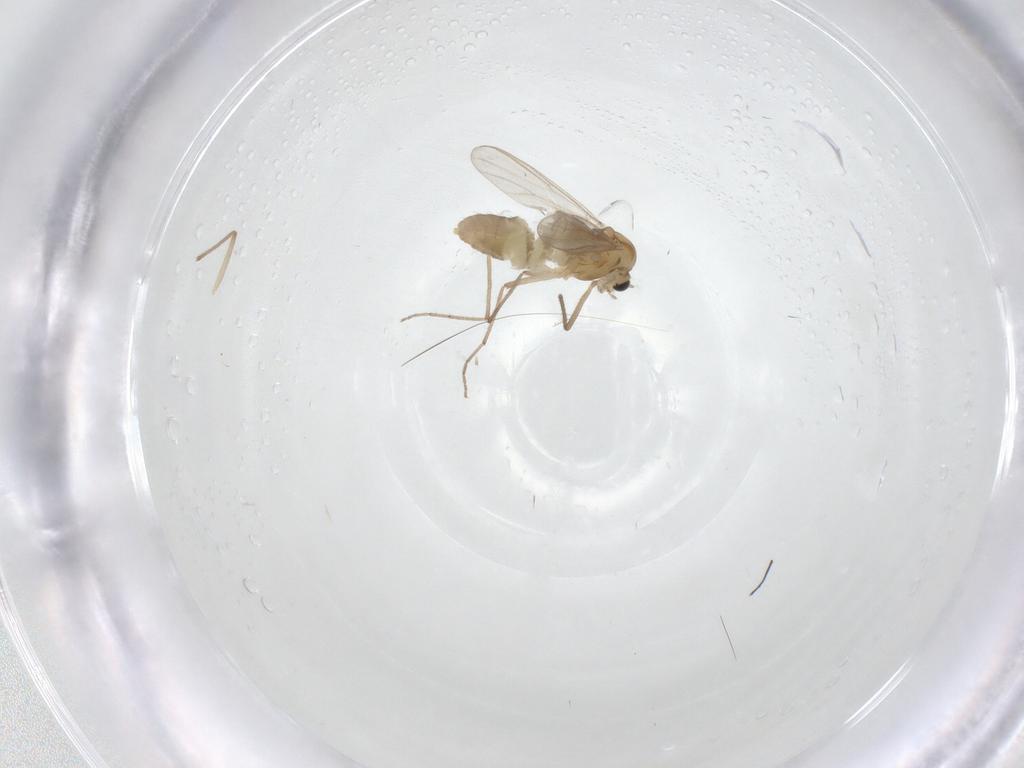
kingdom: Animalia
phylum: Arthropoda
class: Insecta
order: Diptera
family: Chironomidae
